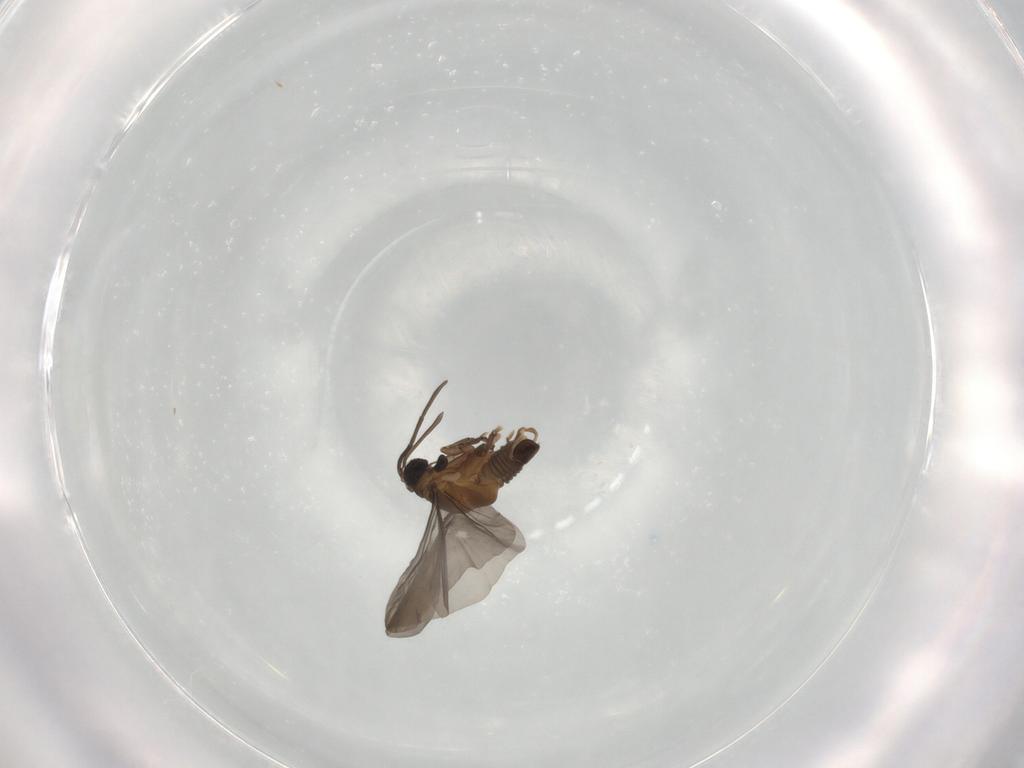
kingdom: Animalia
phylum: Arthropoda
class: Insecta
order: Strepsiptera
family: Myrmecolacidae
